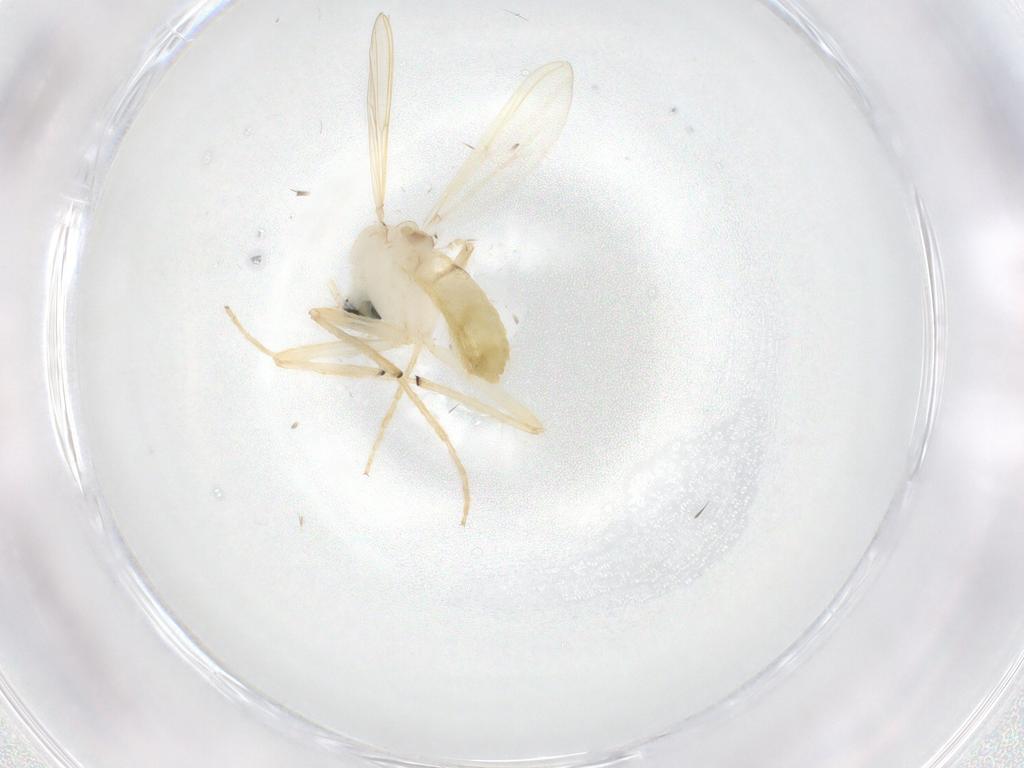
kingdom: Animalia
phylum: Arthropoda
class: Insecta
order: Diptera
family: Chironomidae
